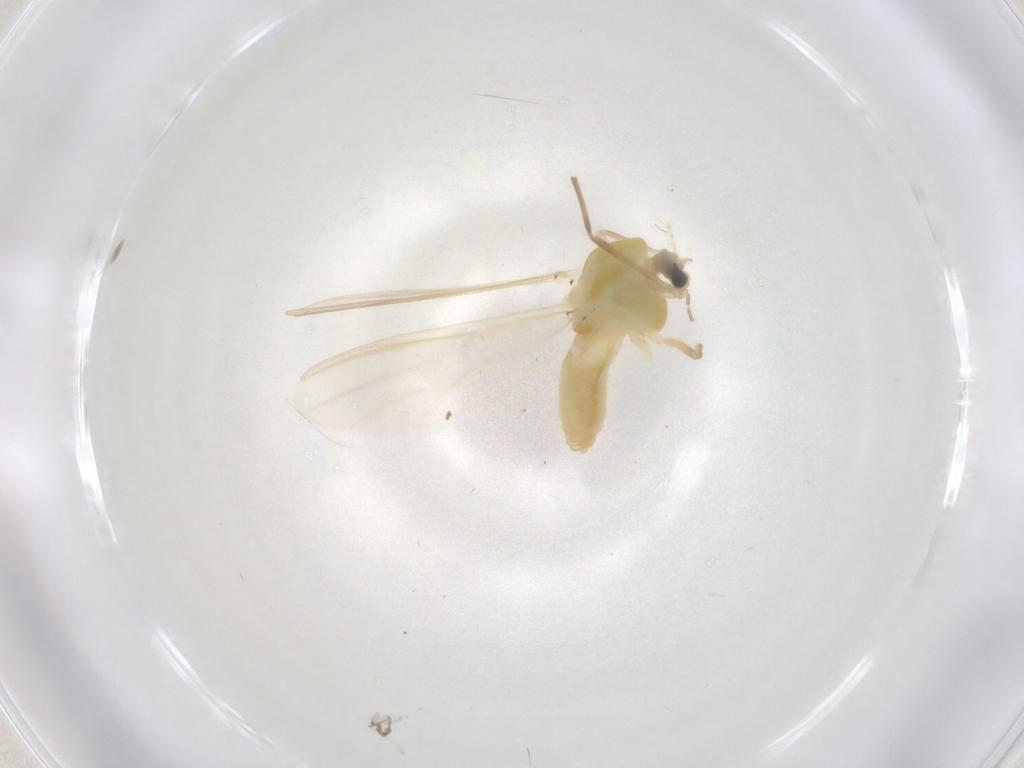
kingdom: Animalia
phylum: Arthropoda
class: Insecta
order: Diptera
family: Chironomidae
